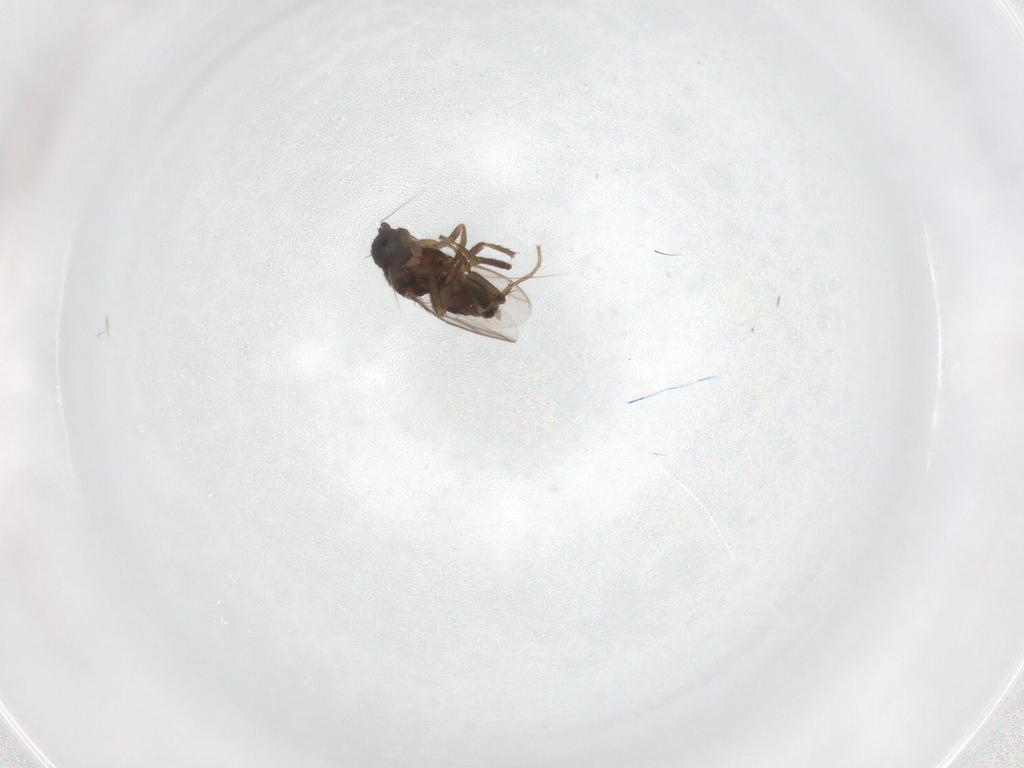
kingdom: Animalia
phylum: Arthropoda
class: Insecta
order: Diptera
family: Sphaeroceridae
